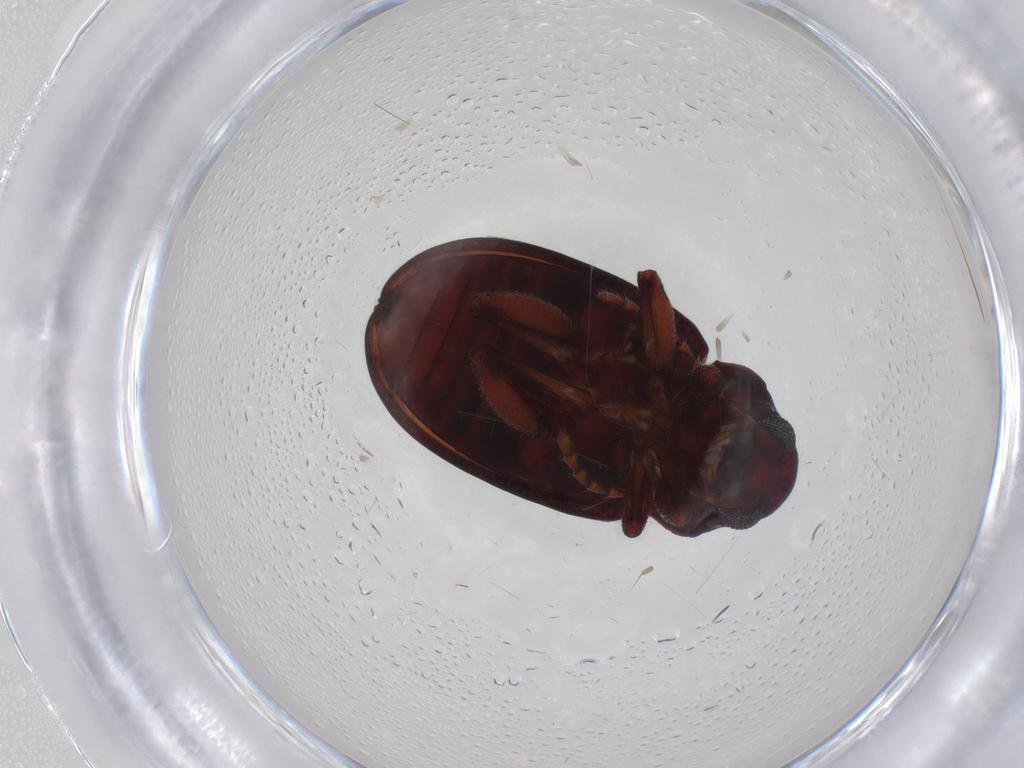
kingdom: Animalia
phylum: Arthropoda
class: Insecta
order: Coleoptera
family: Chrysomelidae
